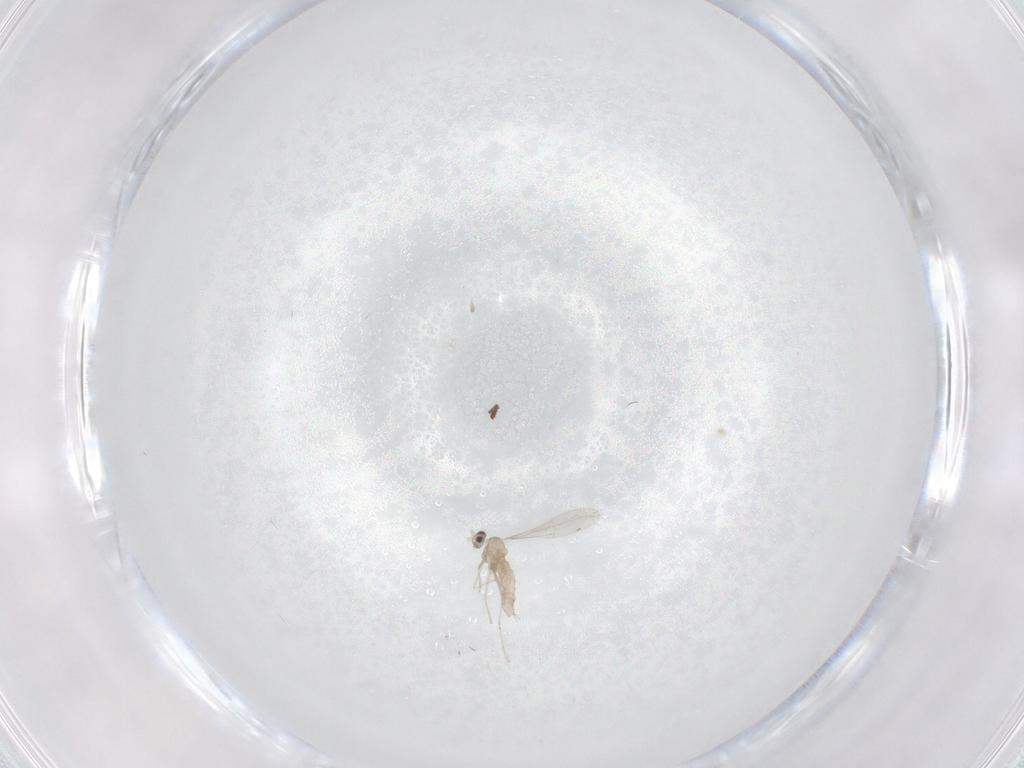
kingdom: Animalia
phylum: Arthropoda
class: Insecta
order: Diptera
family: Cecidomyiidae
